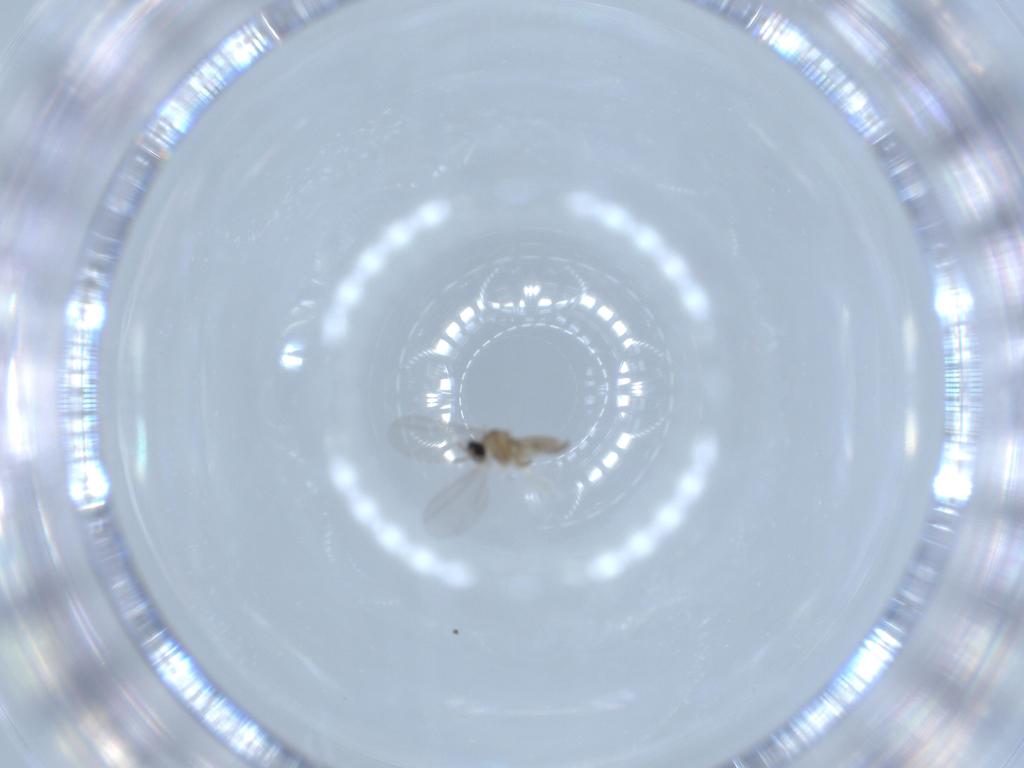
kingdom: Animalia
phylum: Arthropoda
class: Insecta
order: Diptera
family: Cecidomyiidae
